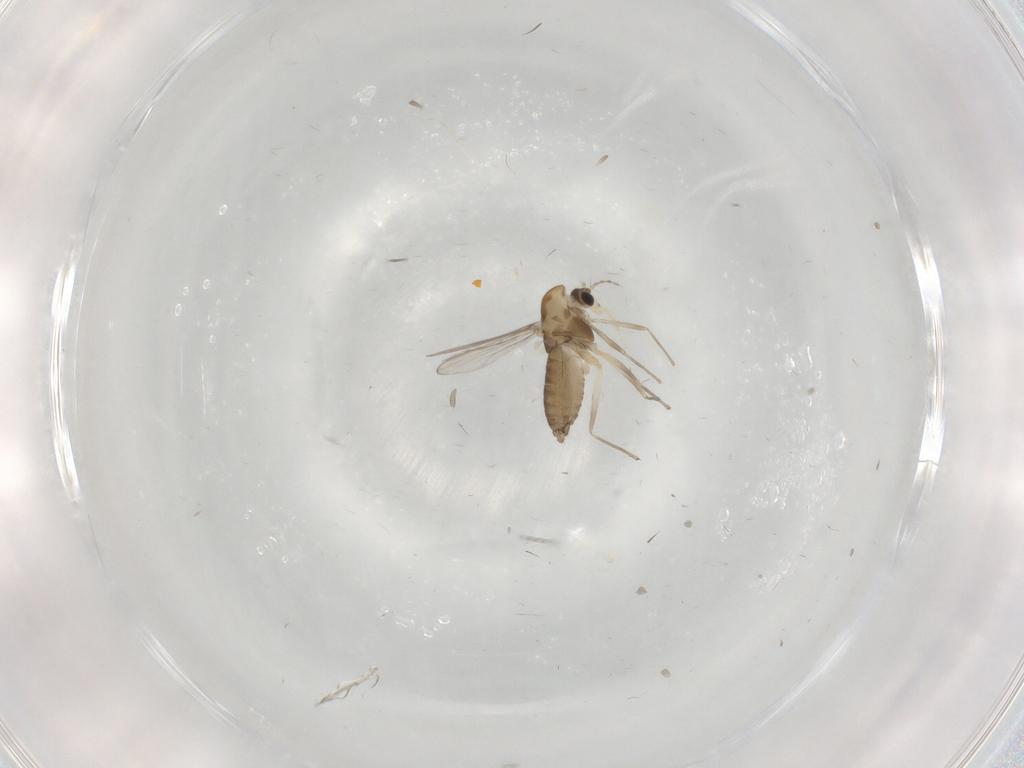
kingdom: Animalia
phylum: Arthropoda
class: Insecta
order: Diptera
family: Chironomidae
